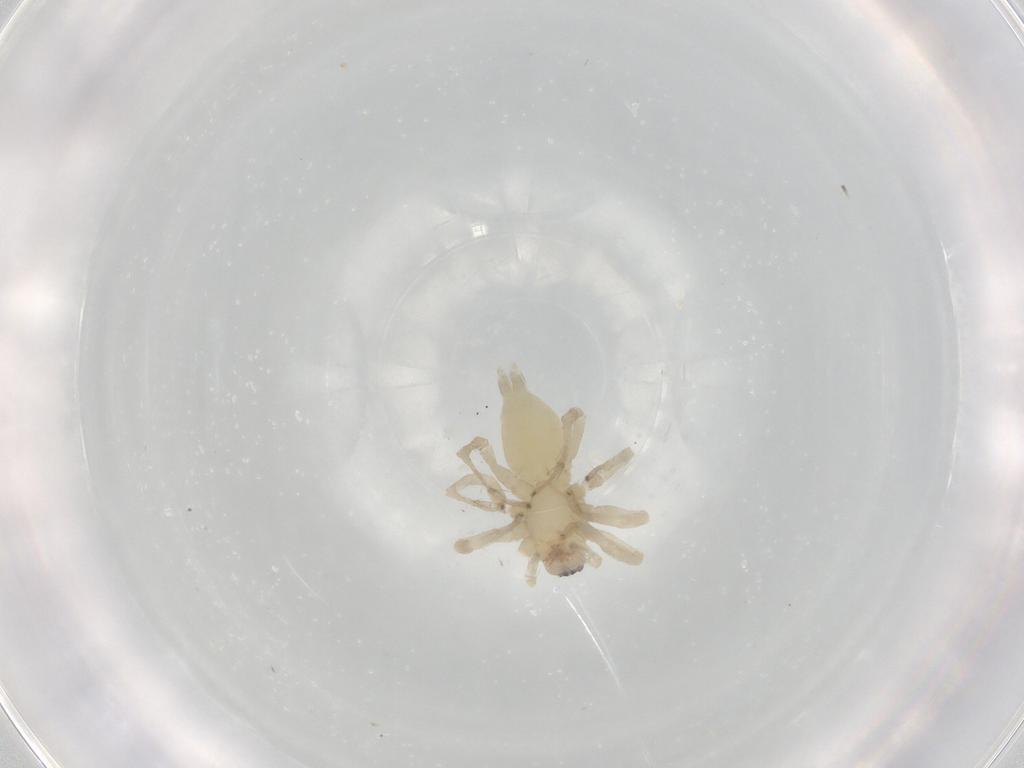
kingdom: Animalia
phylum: Arthropoda
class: Arachnida
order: Araneae
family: Anyphaenidae
